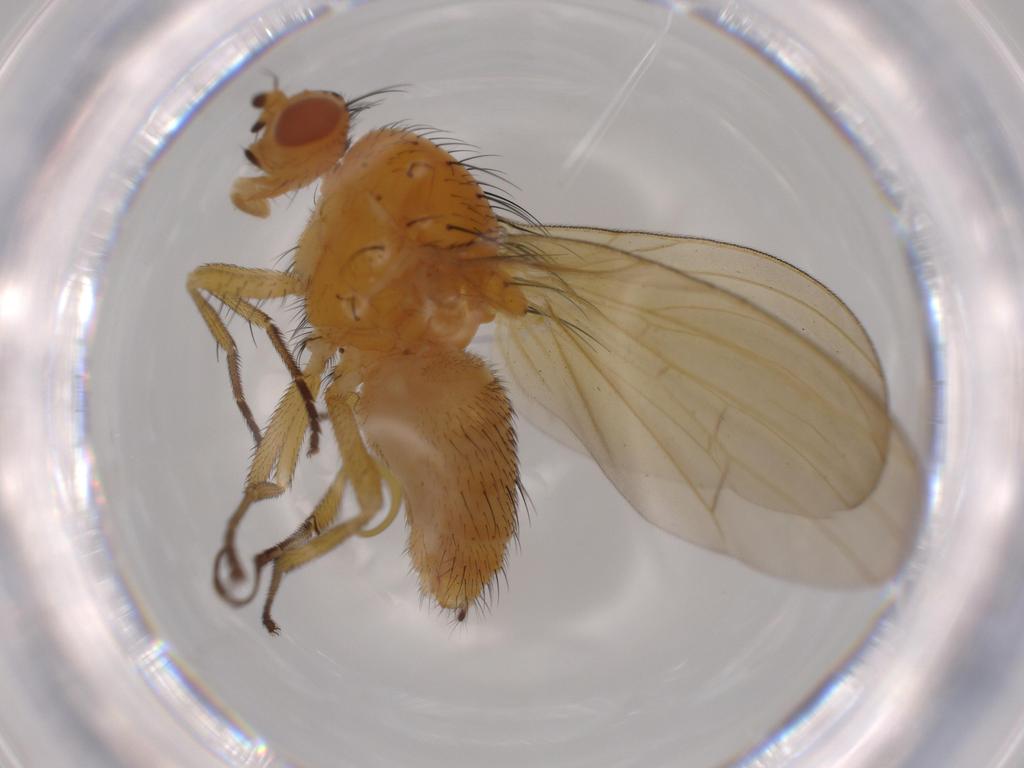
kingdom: Animalia
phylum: Arthropoda
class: Insecta
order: Diptera
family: Lauxaniidae
